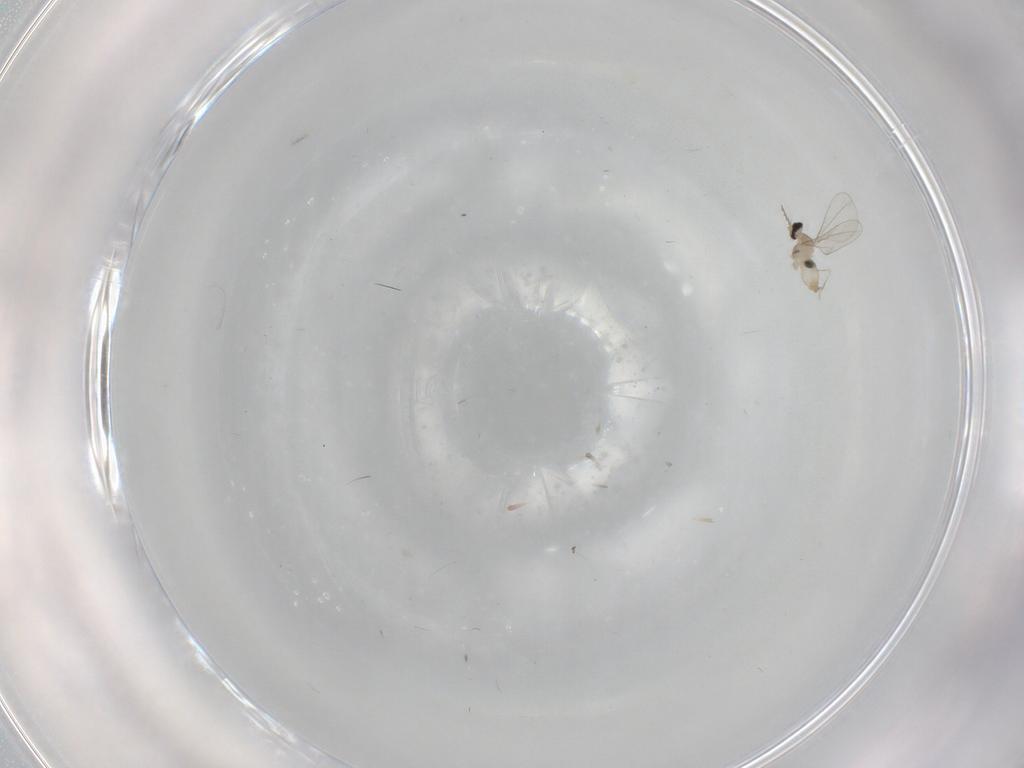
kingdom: Animalia
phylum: Arthropoda
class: Insecta
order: Diptera
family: Cecidomyiidae
